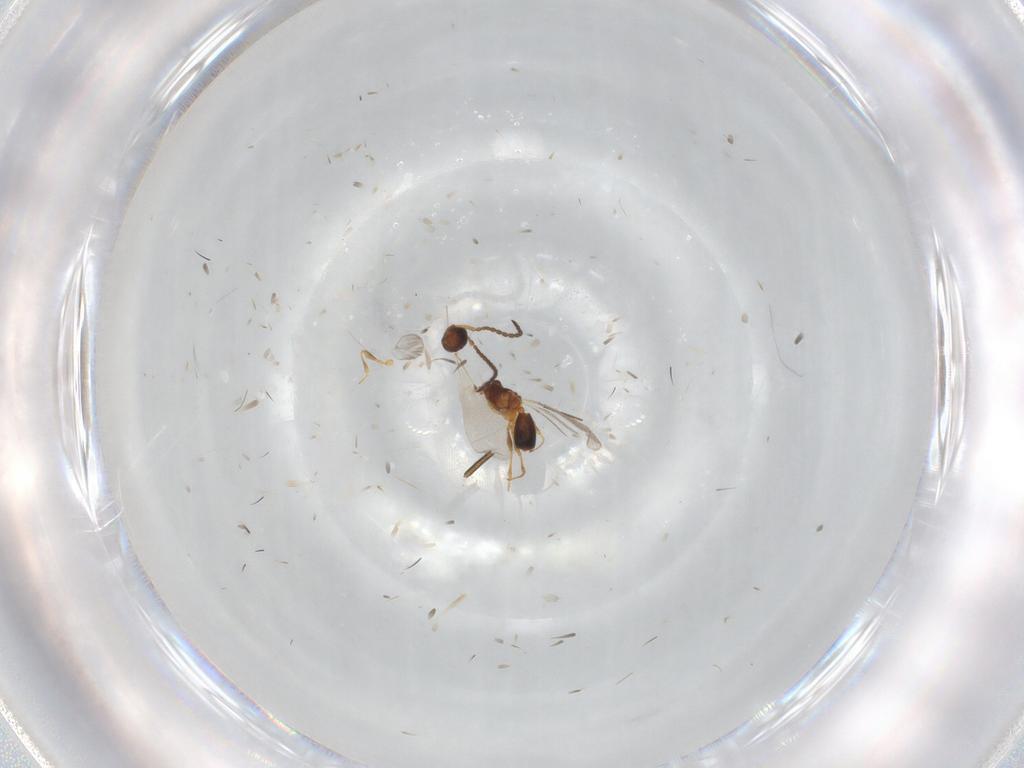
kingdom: Animalia
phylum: Arthropoda
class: Insecta
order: Hymenoptera
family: Diapriidae
